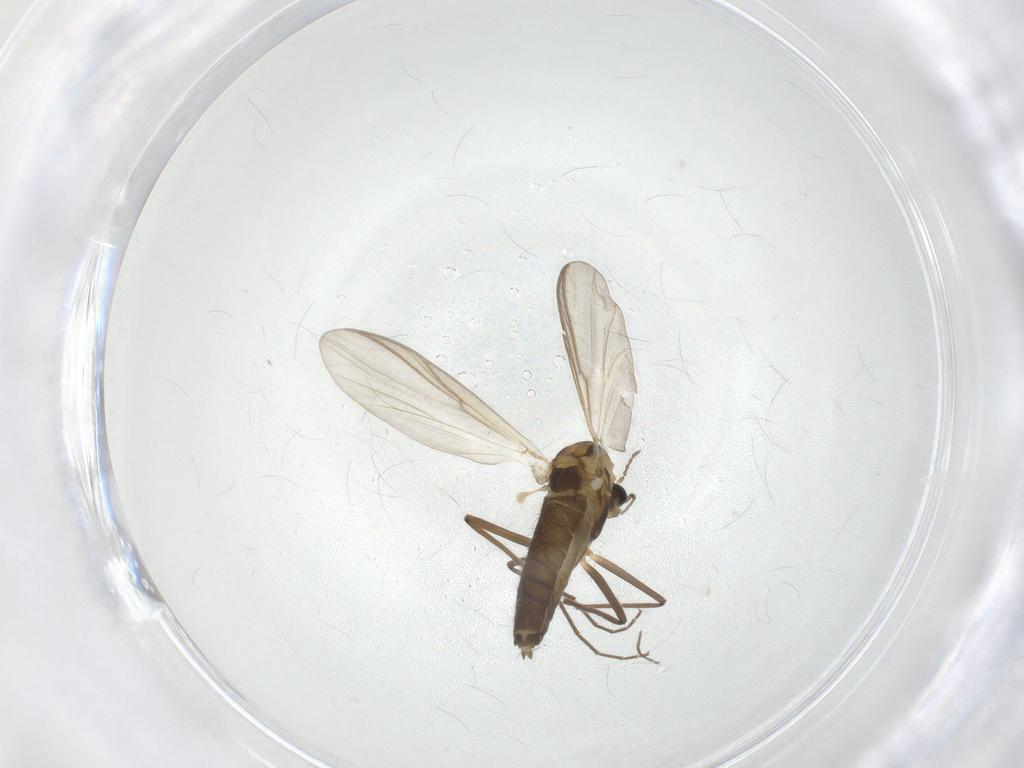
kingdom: Animalia
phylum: Arthropoda
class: Insecta
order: Diptera
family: Chironomidae
